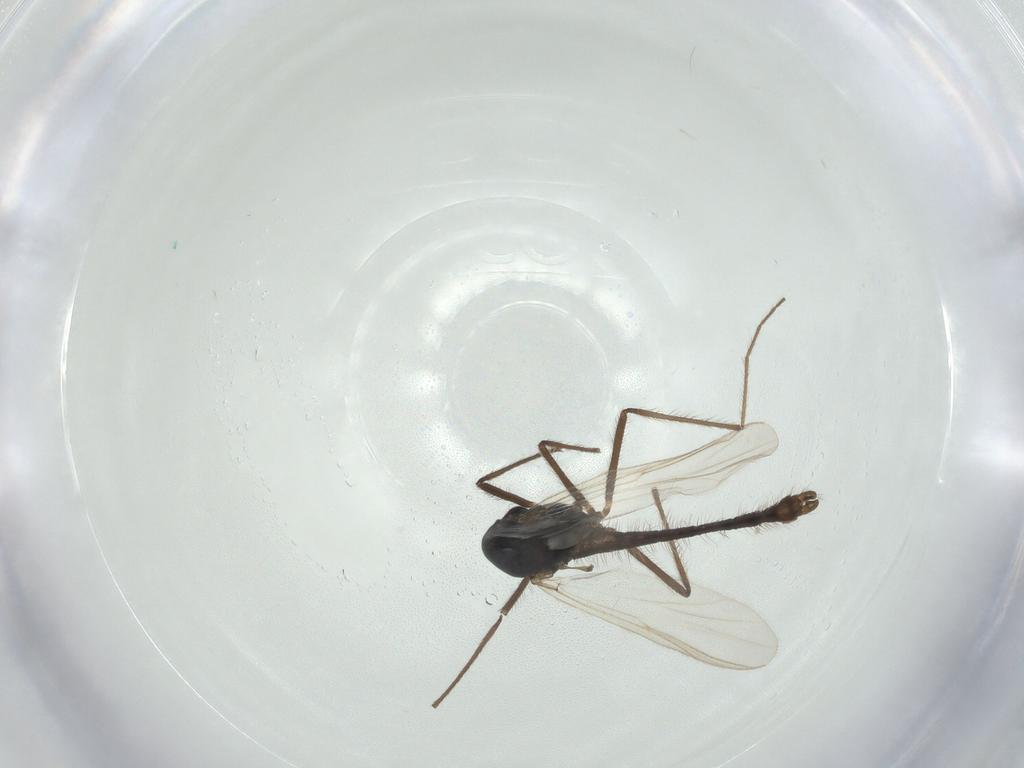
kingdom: Animalia
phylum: Arthropoda
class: Insecta
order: Diptera
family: Chironomidae
